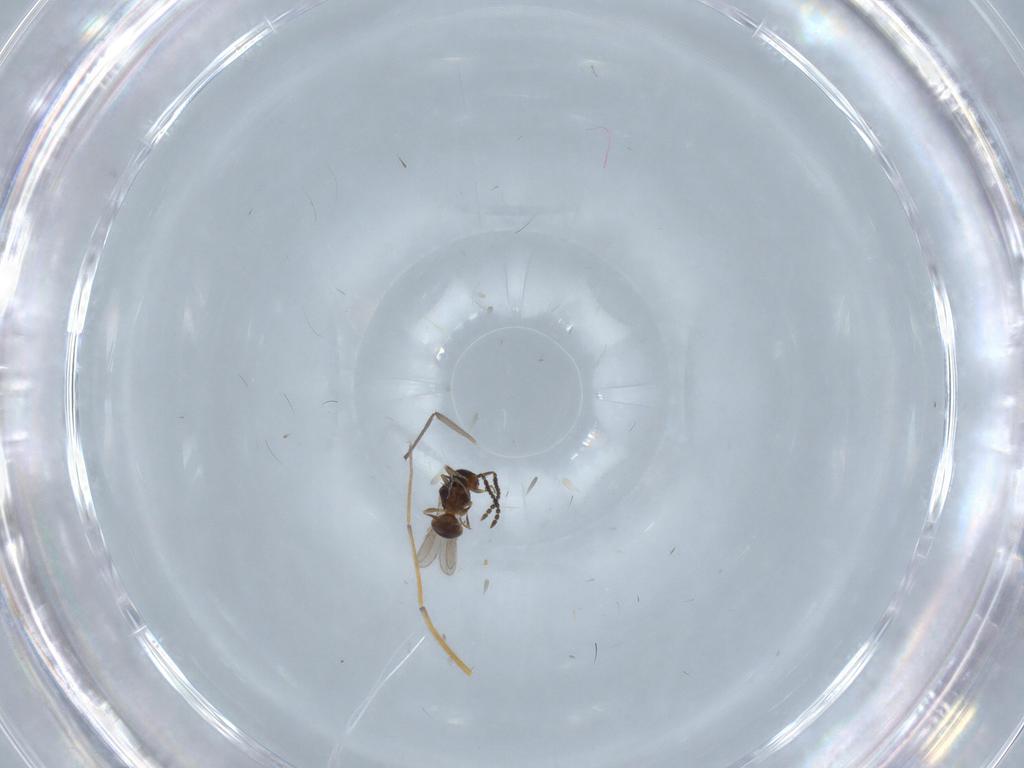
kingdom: Animalia
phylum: Arthropoda
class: Insecta
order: Hymenoptera
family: Scelionidae
